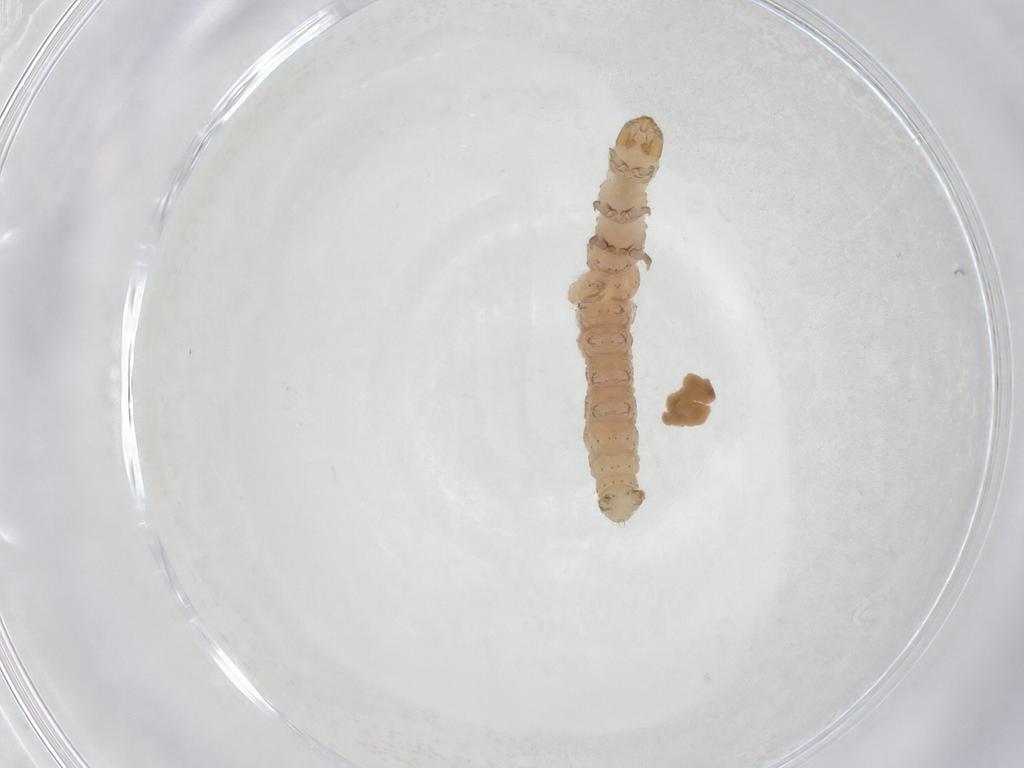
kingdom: Animalia
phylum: Arthropoda
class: Insecta
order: Lepidoptera
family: Gelechiidae
